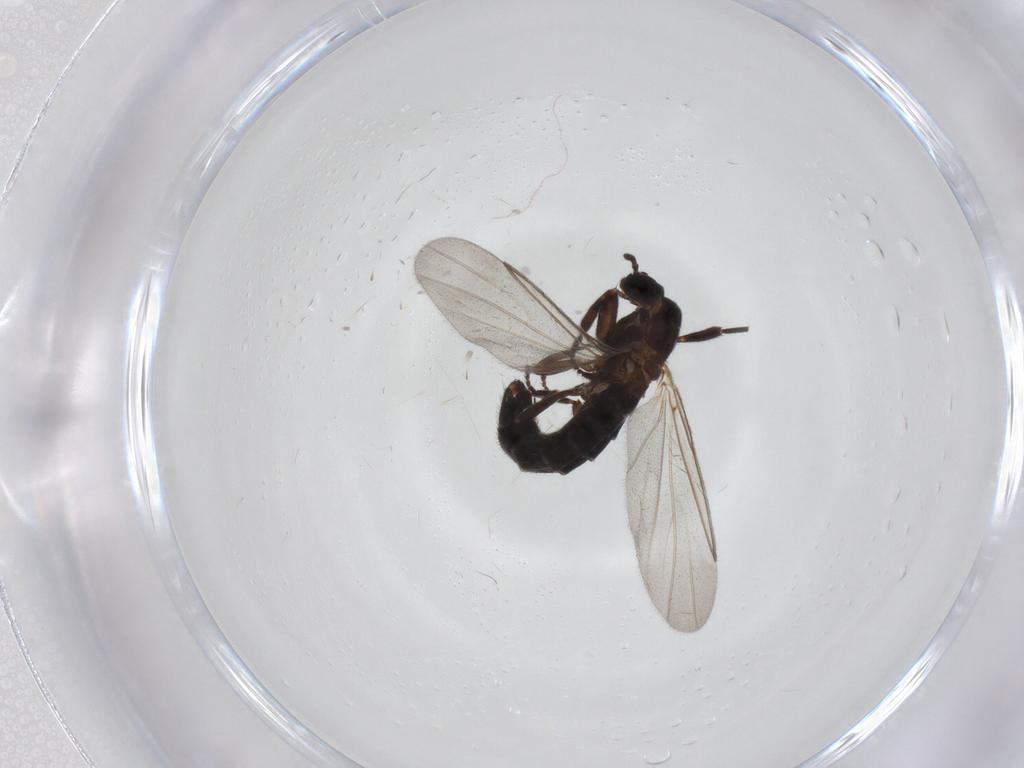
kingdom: Animalia
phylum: Arthropoda
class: Insecta
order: Diptera
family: Scatopsidae
